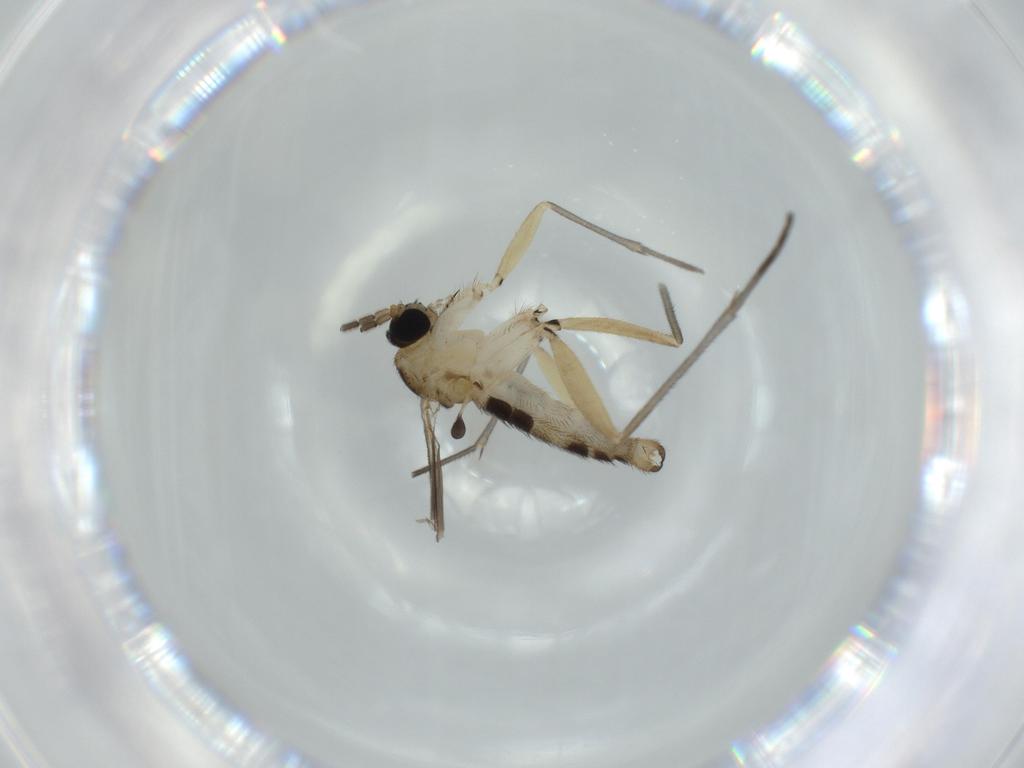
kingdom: Animalia
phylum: Arthropoda
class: Insecta
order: Diptera
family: Sciaridae
